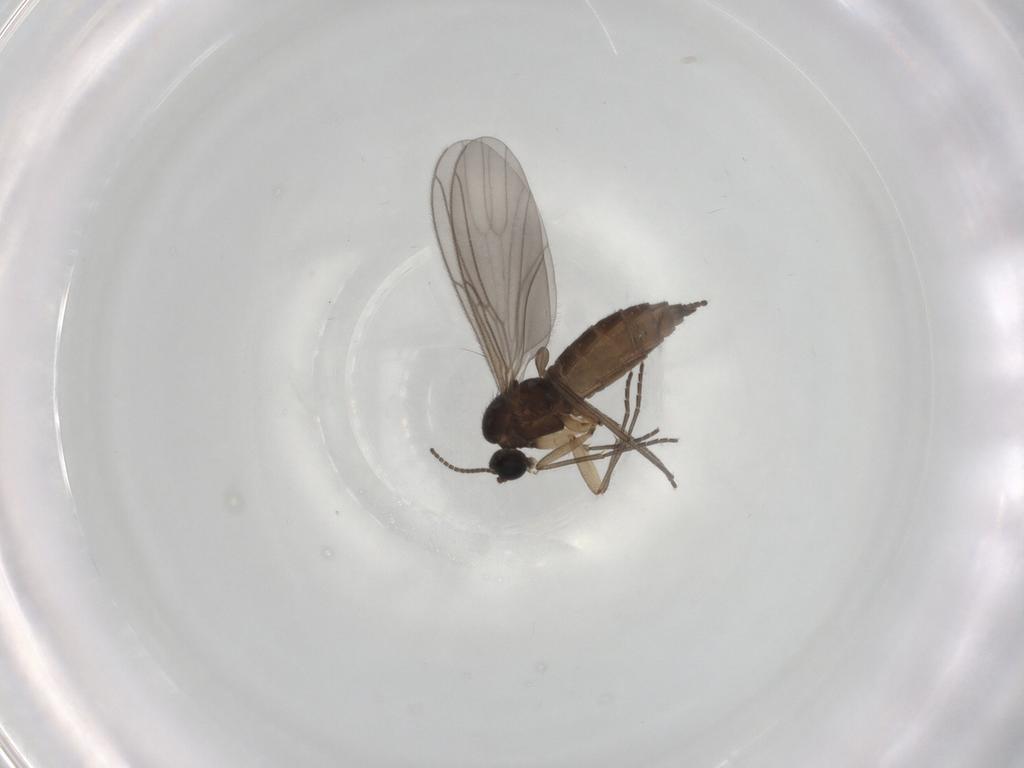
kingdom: Animalia
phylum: Arthropoda
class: Insecta
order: Diptera
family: Sciaridae
